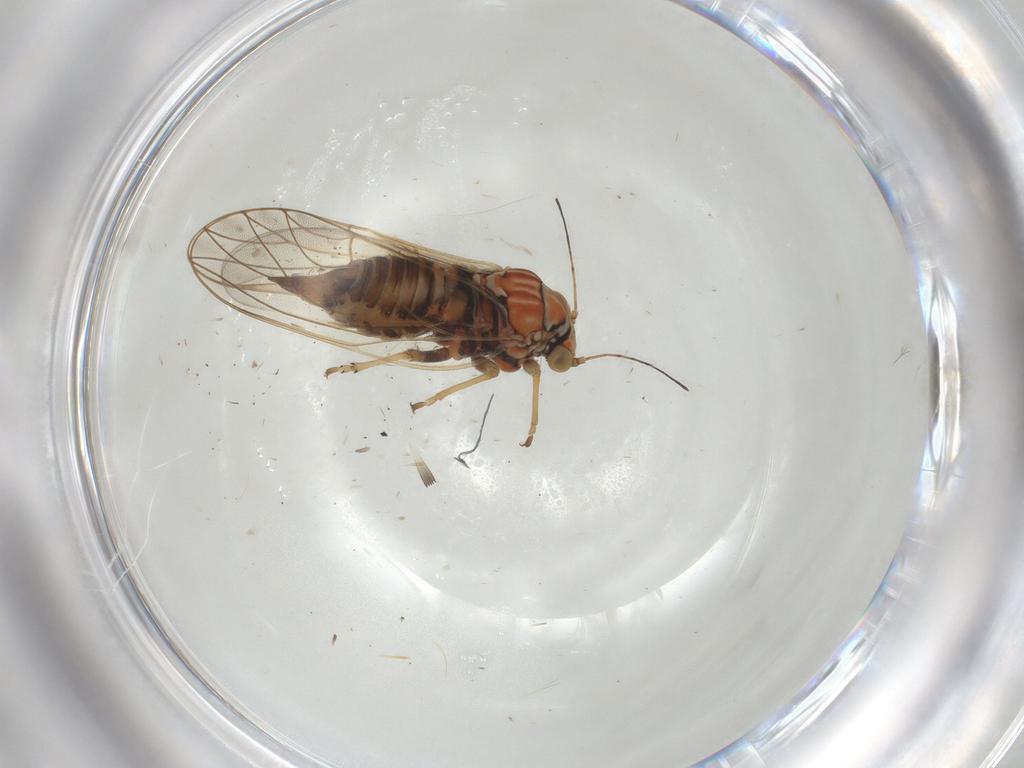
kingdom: Animalia
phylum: Arthropoda
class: Insecta
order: Hemiptera
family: Psyllidae
